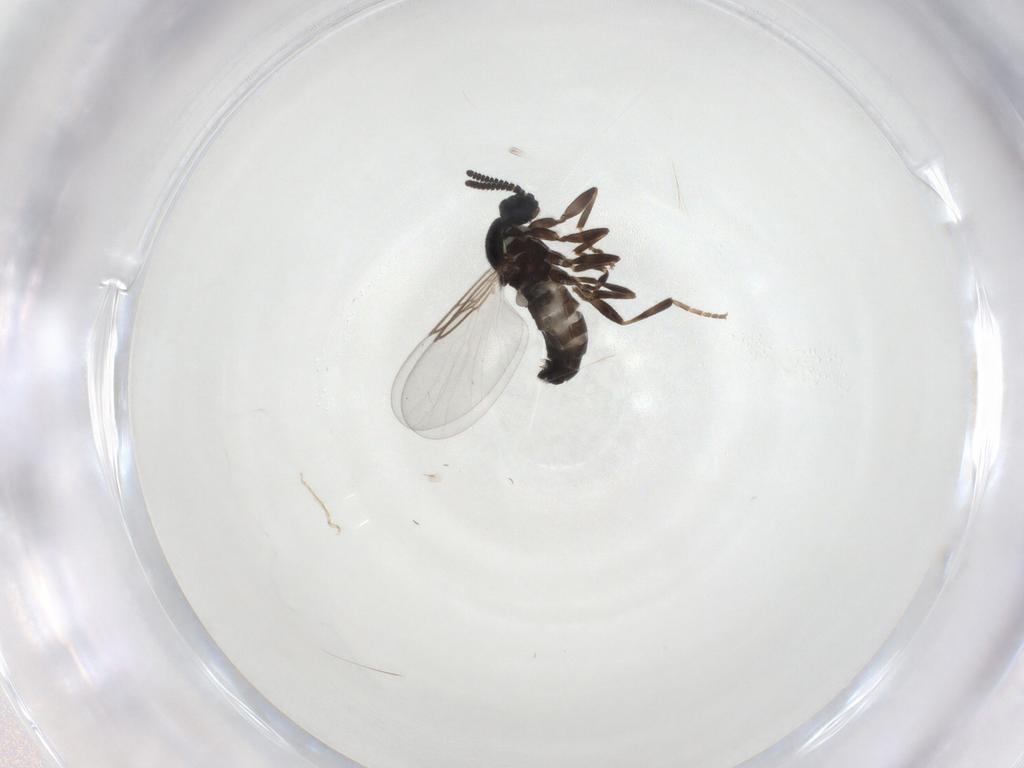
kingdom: Animalia
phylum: Arthropoda
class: Insecta
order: Diptera
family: Scatopsidae
